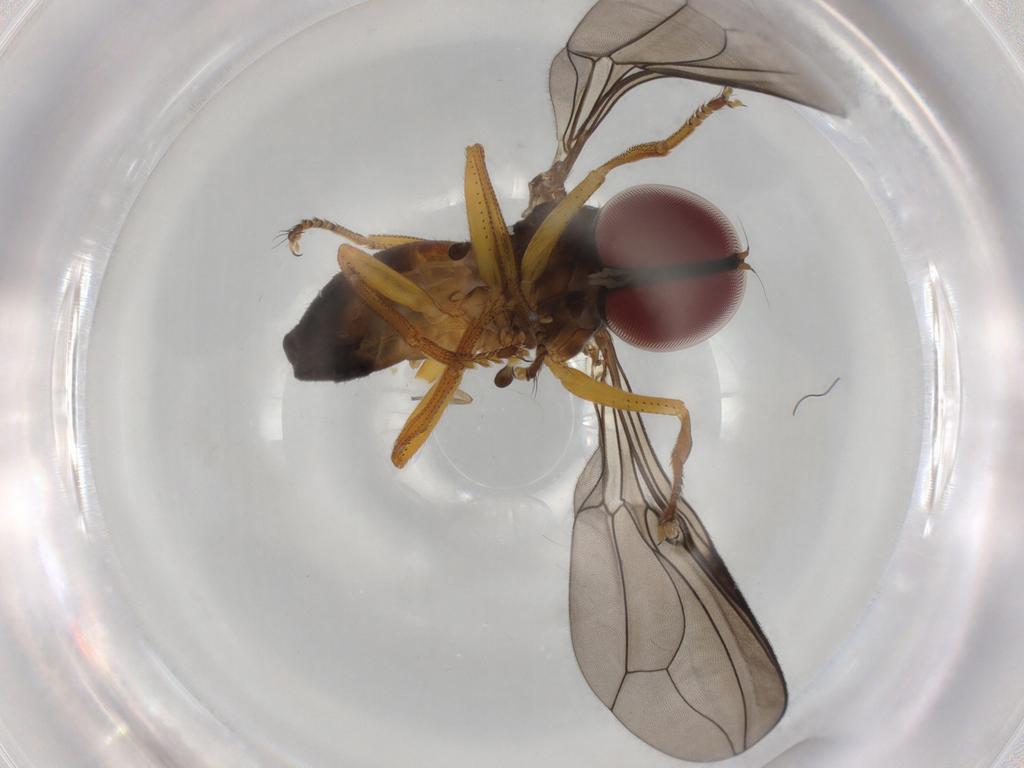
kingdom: Animalia
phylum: Arthropoda
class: Insecta
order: Diptera
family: Pipunculidae
